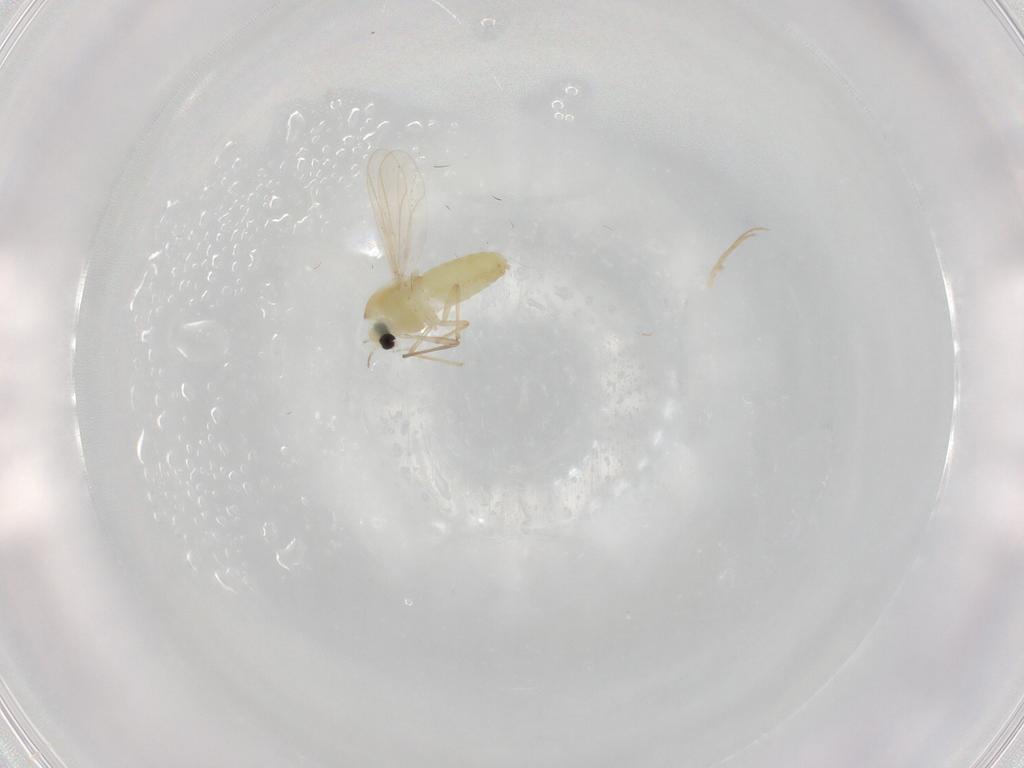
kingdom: Animalia
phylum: Arthropoda
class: Insecta
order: Diptera
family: Chironomidae
